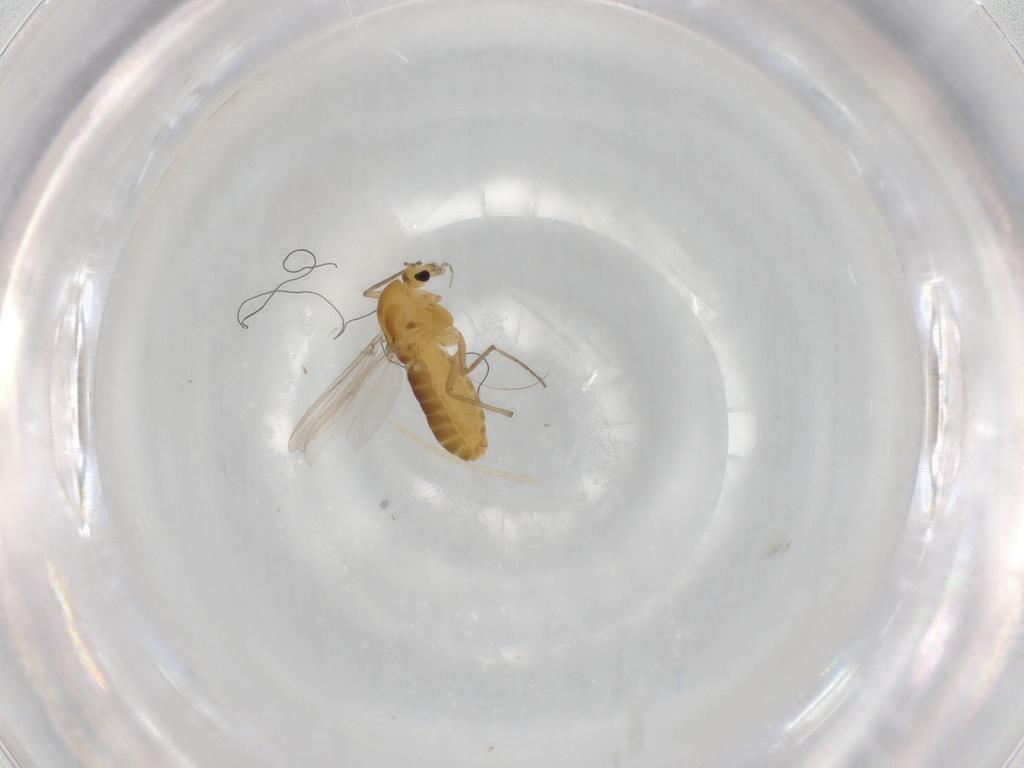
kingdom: Animalia
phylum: Arthropoda
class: Insecta
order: Diptera
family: Chironomidae
